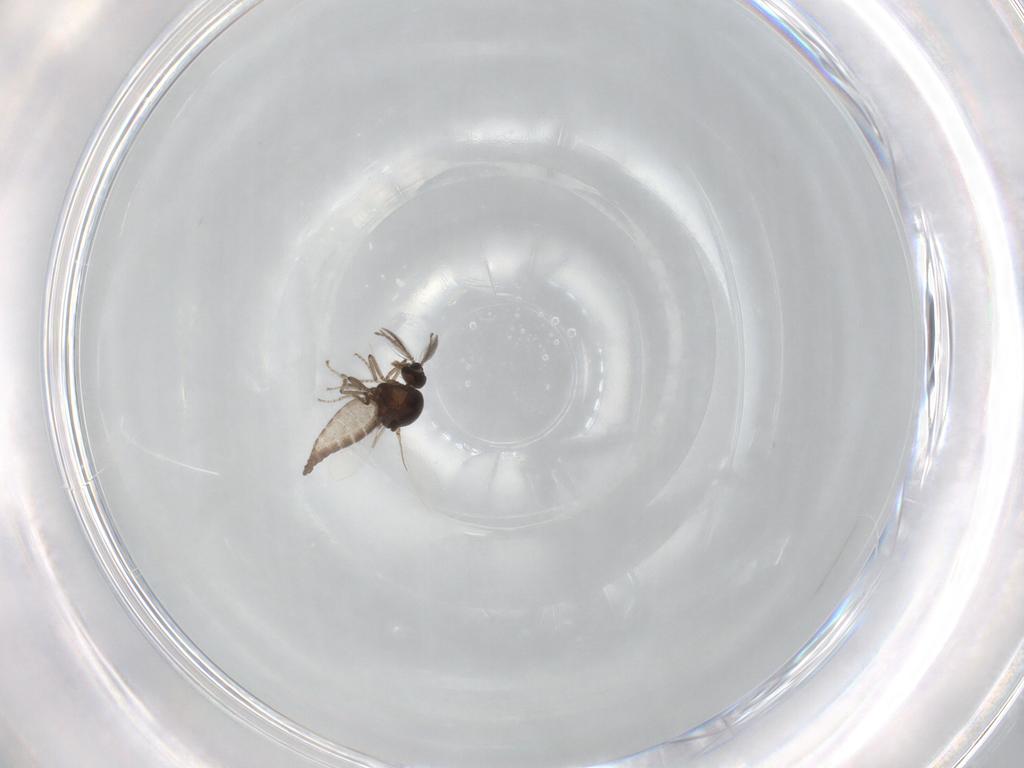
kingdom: Animalia
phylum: Arthropoda
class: Insecta
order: Diptera
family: Ceratopogonidae
